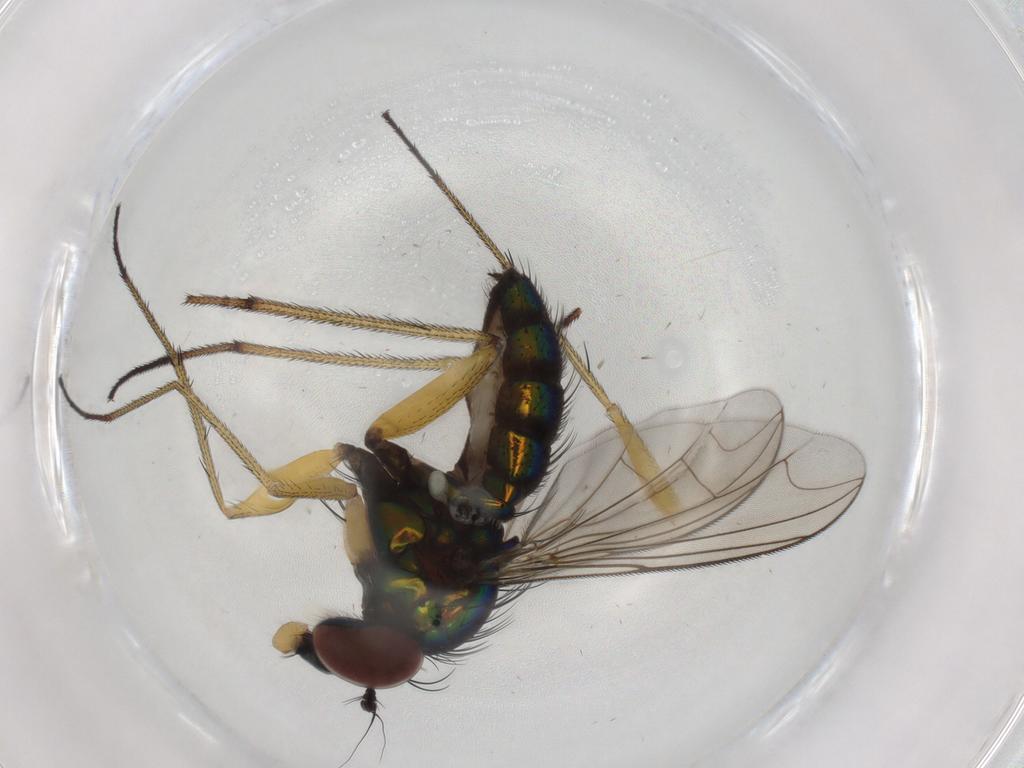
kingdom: Animalia
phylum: Arthropoda
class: Insecta
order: Diptera
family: Dolichopodidae
